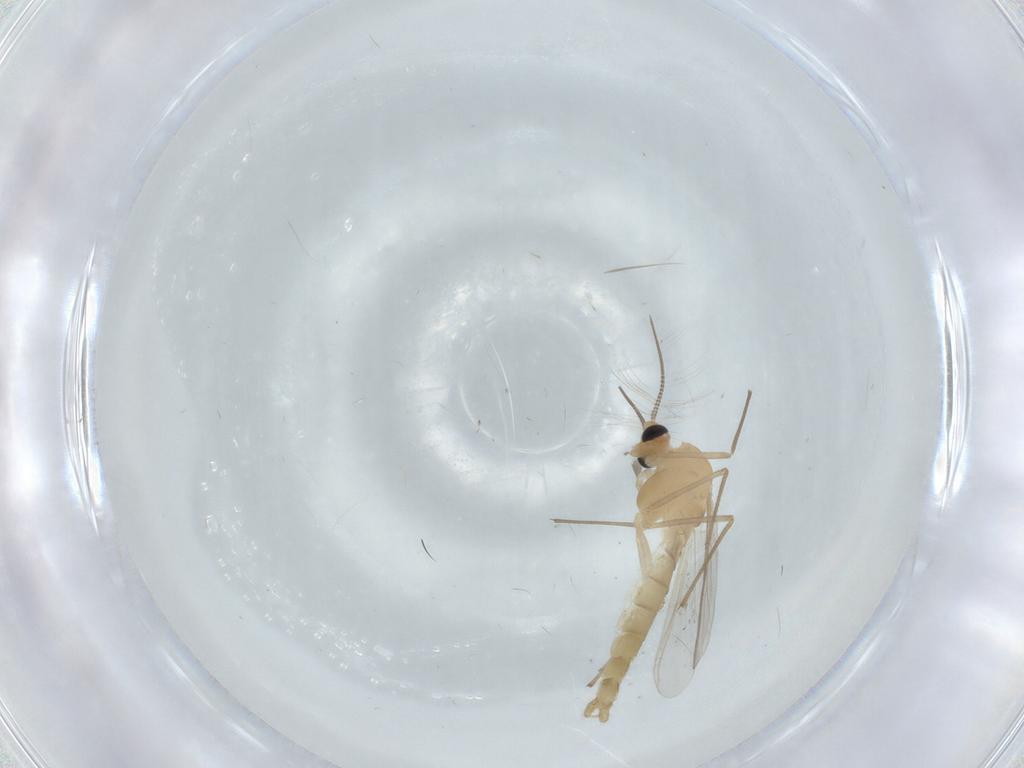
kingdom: Animalia
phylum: Arthropoda
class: Insecta
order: Diptera
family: Chironomidae
